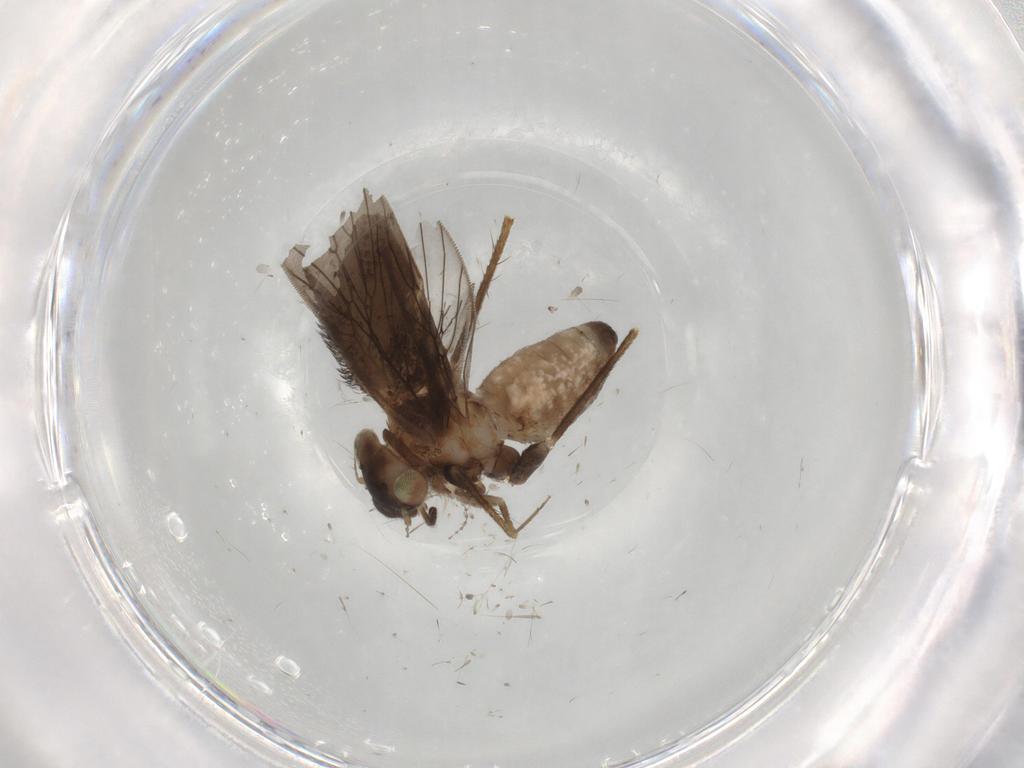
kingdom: Animalia
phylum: Arthropoda
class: Insecta
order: Psocodea
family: Lepidopsocidae
